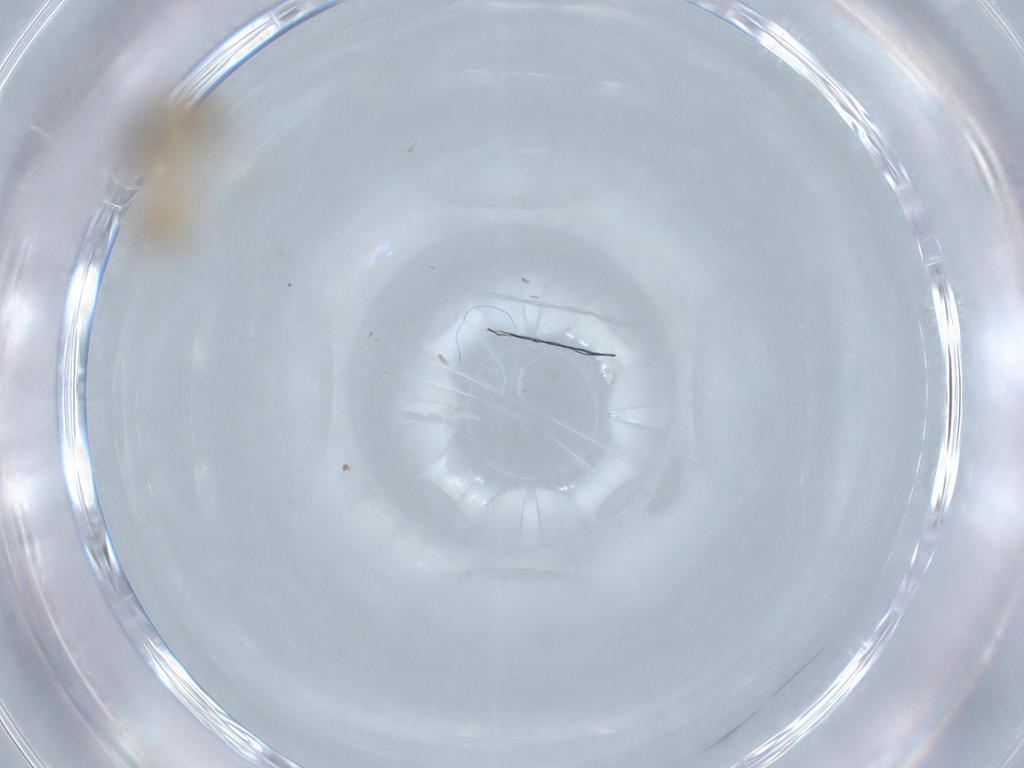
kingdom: Animalia
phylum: Arthropoda
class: Insecta
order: Diptera
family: Chironomidae
